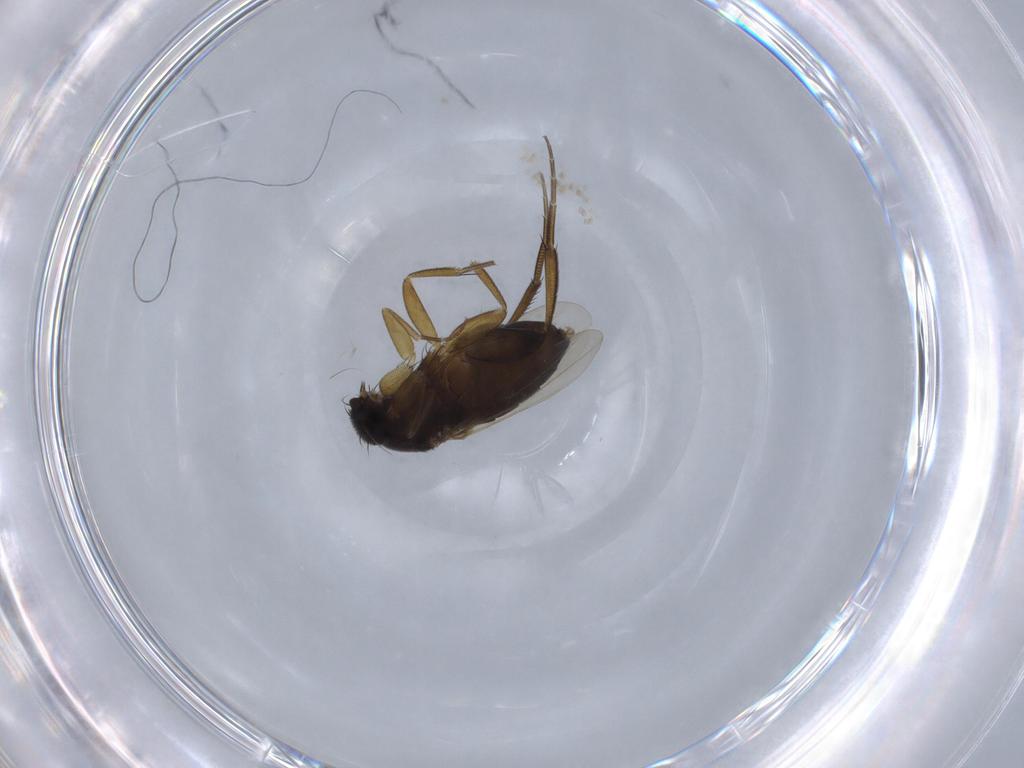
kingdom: Animalia
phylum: Arthropoda
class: Insecta
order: Diptera
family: Phoridae
